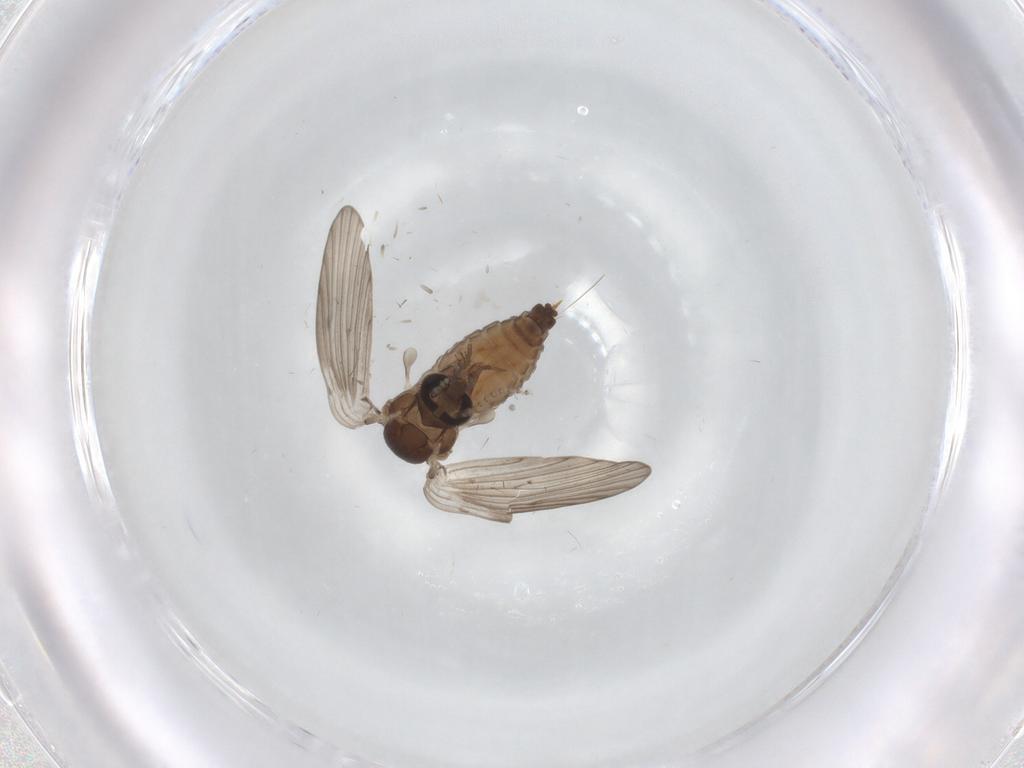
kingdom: Animalia
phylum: Arthropoda
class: Insecta
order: Diptera
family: Psychodidae
